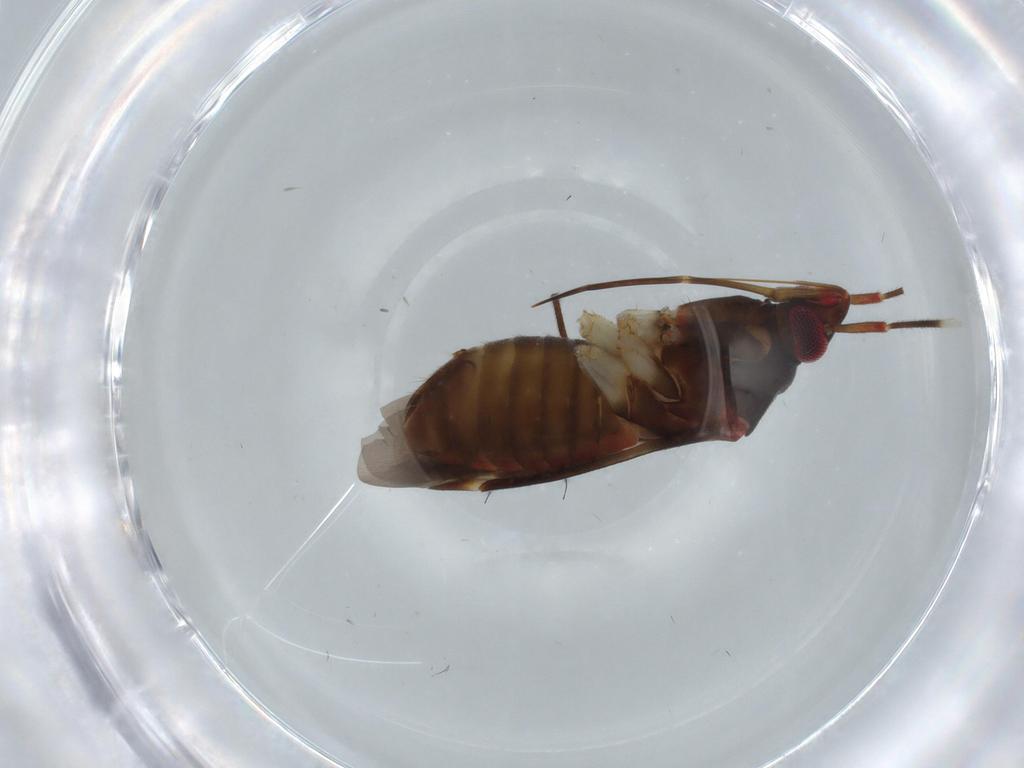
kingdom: Animalia
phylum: Arthropoda
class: Insecta
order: Hemiptera
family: Miridae
